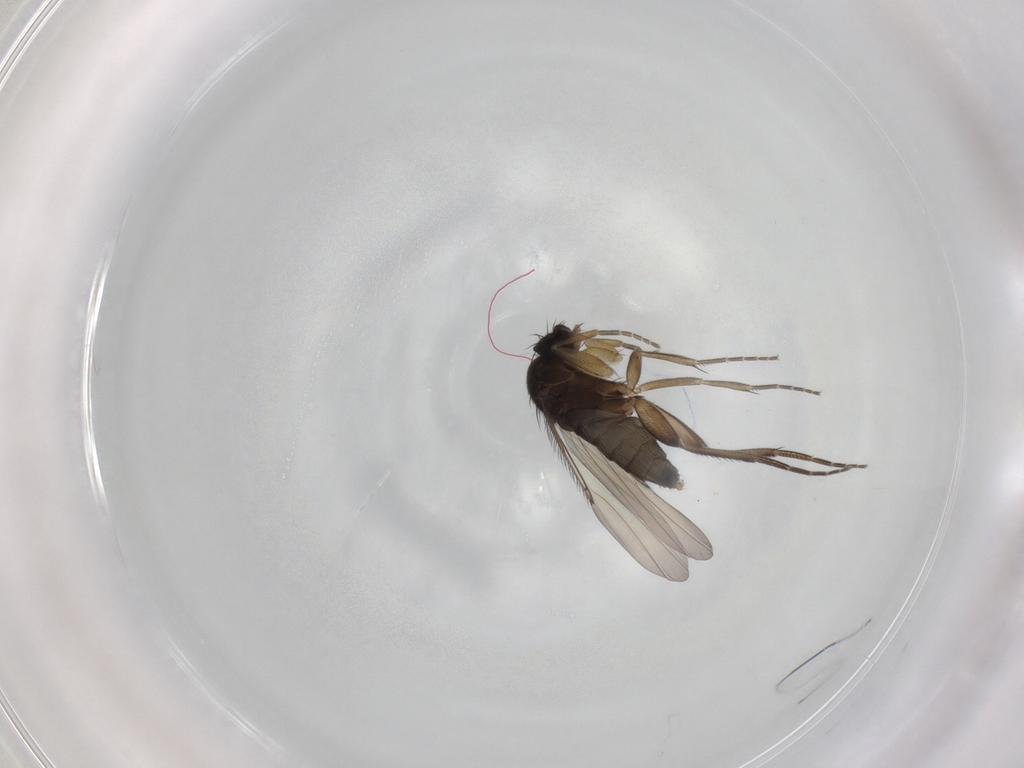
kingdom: Animalia
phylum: Arthropoda
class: Insecta
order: Diptera
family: Phoridae
